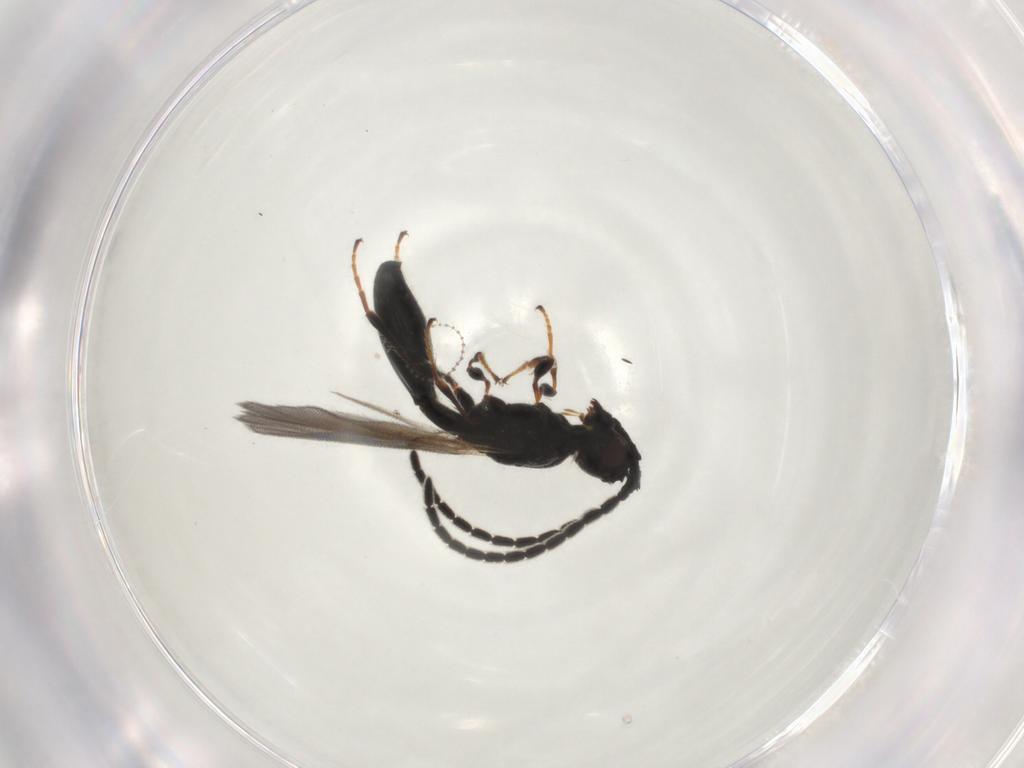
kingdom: Animalia
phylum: Arthropoda
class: Insecta
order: Hymenoptera
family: Diapriidae
